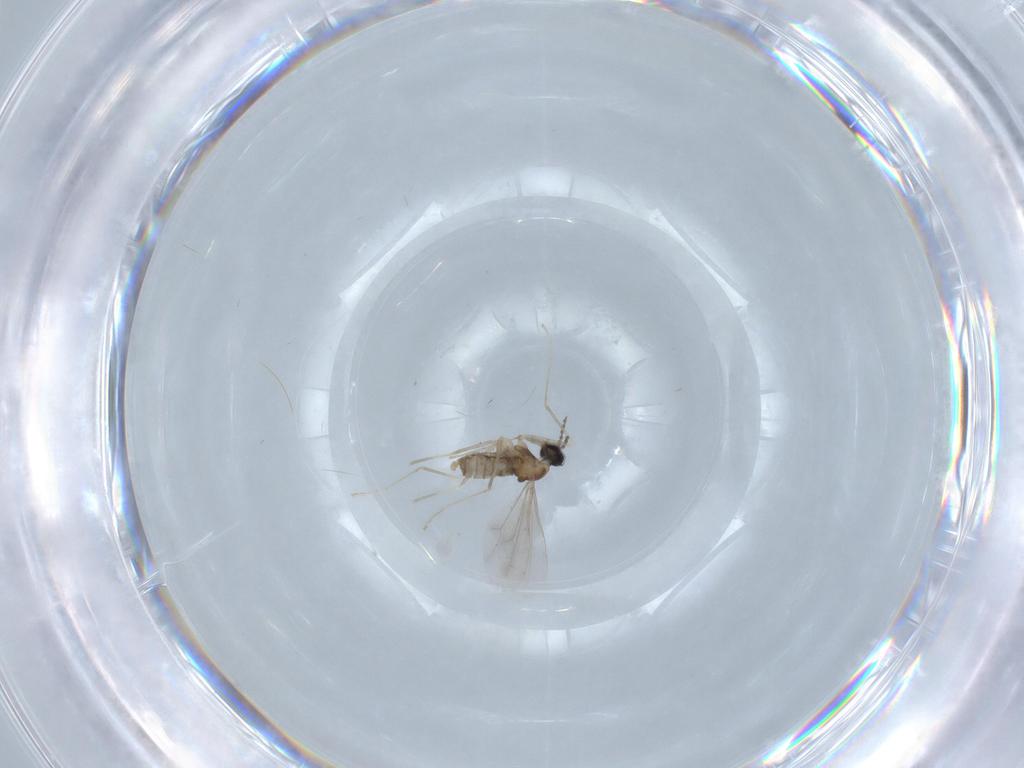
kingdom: Animalia
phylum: Arthropoda
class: Insecta
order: Diptera
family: Cecidomyiidae
